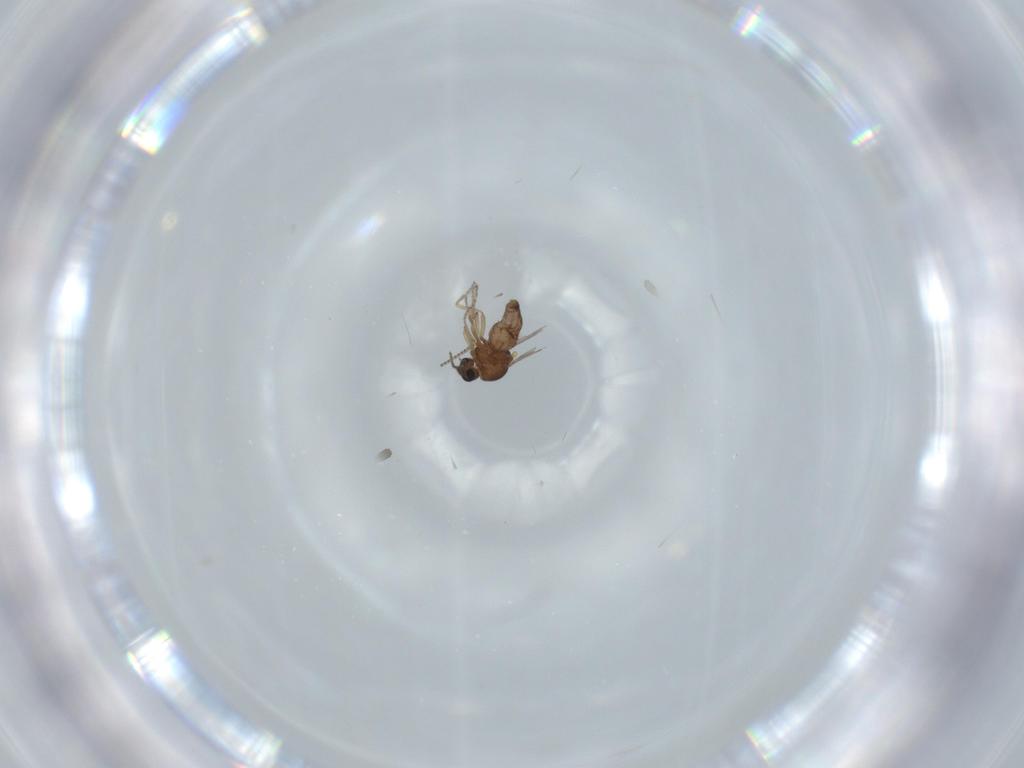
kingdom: Animalia
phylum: Arthropoda
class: Insecta
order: Diptera
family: Ceratopogonidae
